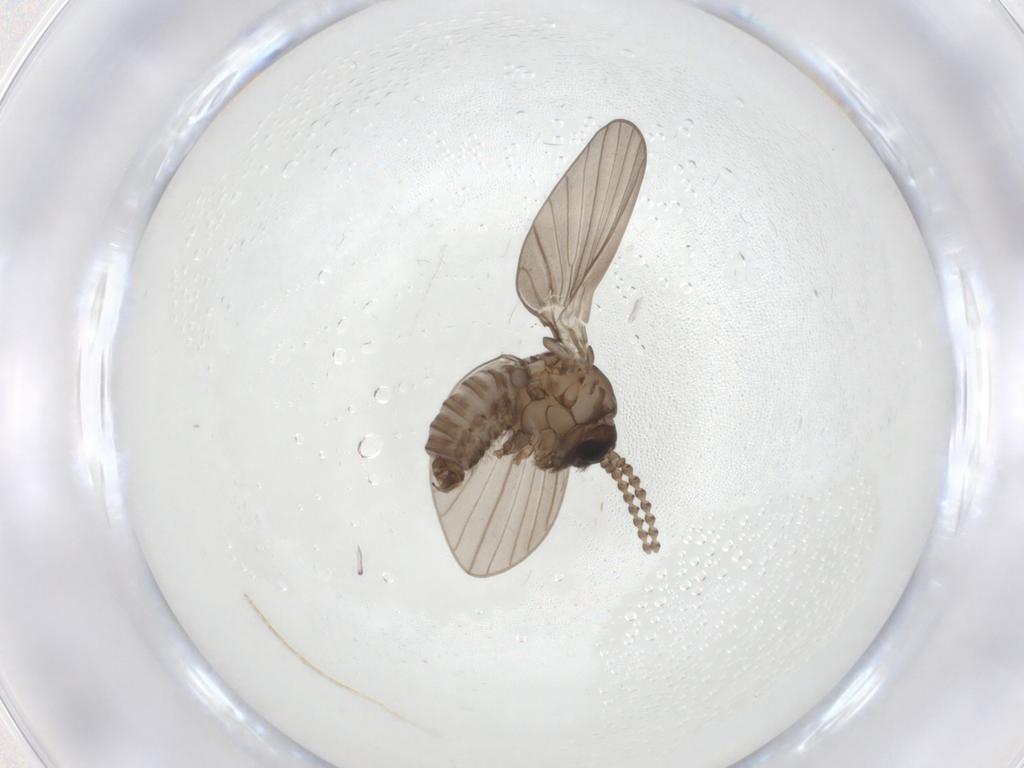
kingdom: Animalia
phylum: Arthropoda
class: Insecta
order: Diptera
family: Psychodidae
